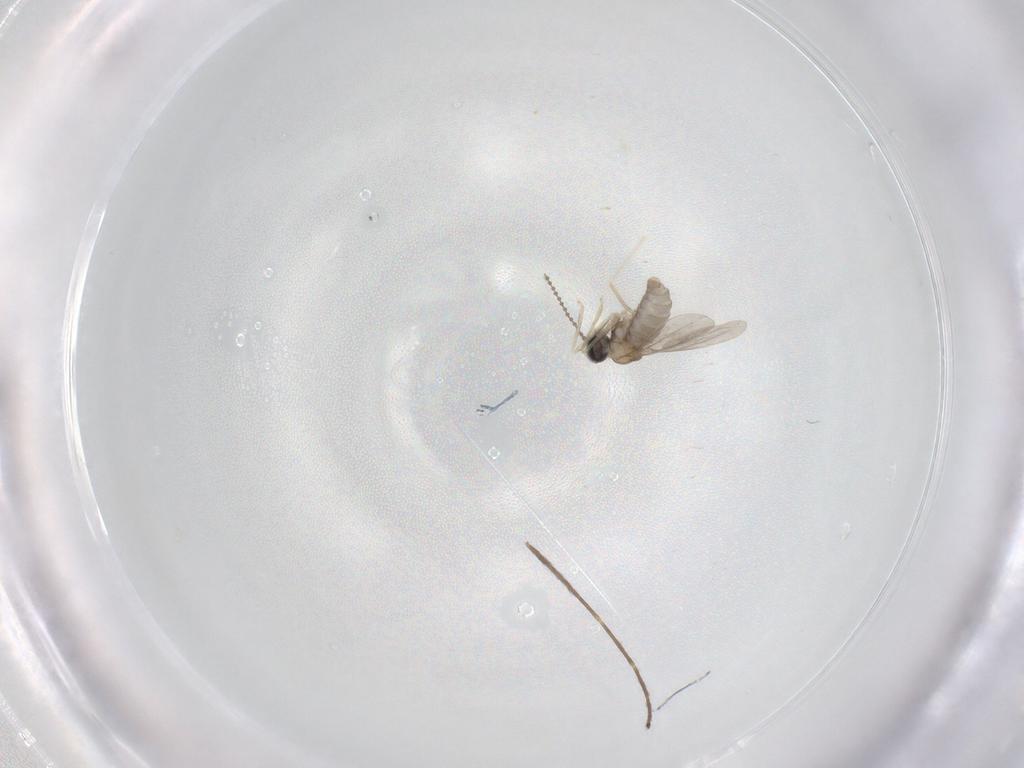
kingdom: Animalia
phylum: Arthropoda
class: Insecta
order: Diptera
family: Cecidomyiidae
